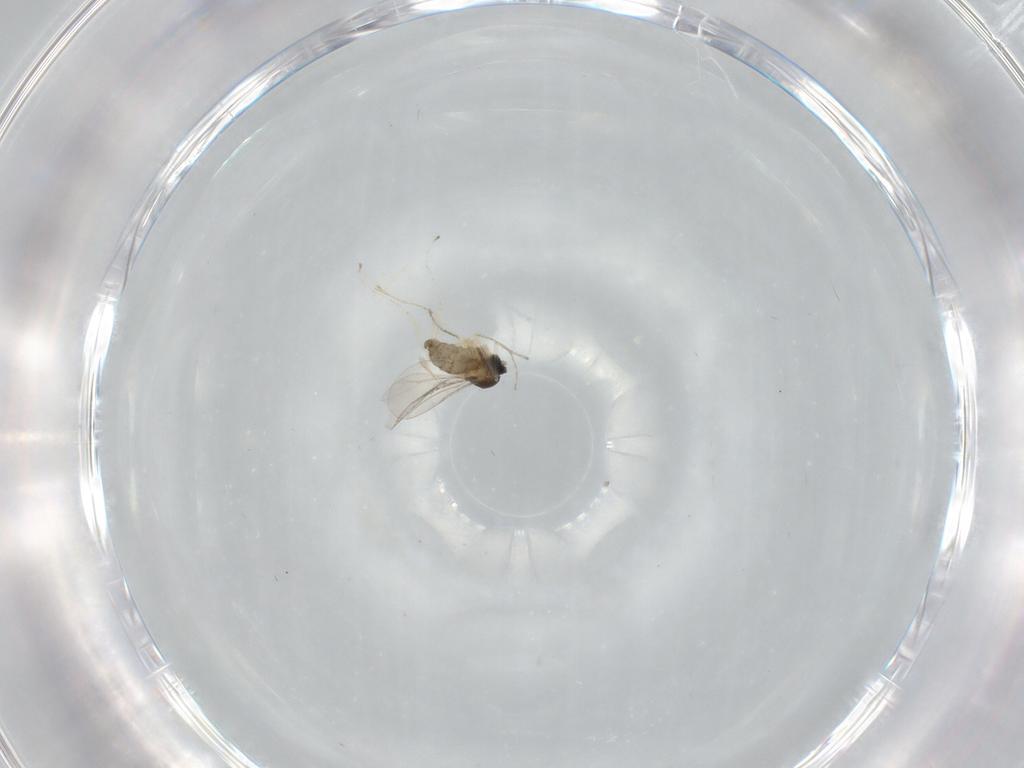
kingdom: Animalia
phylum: Arthropoda
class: Insecta
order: Diptera
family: Cecidomyiidae
